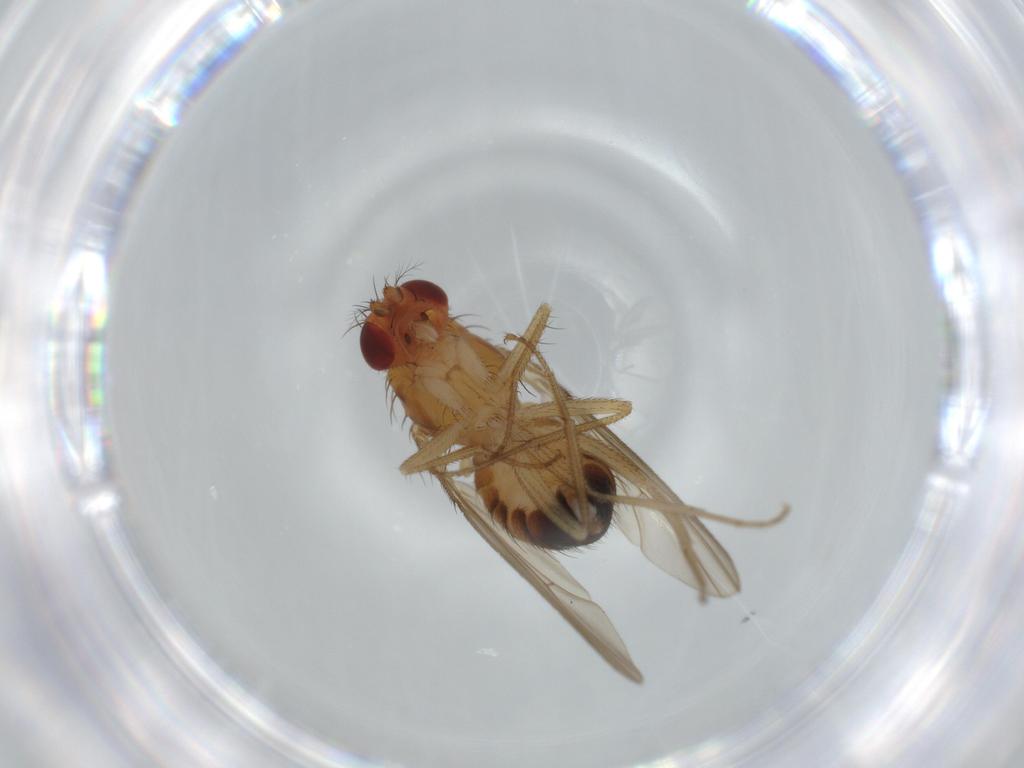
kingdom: Animalia
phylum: Arthropoda
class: Insecta
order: Diptera
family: Drosophilidae
